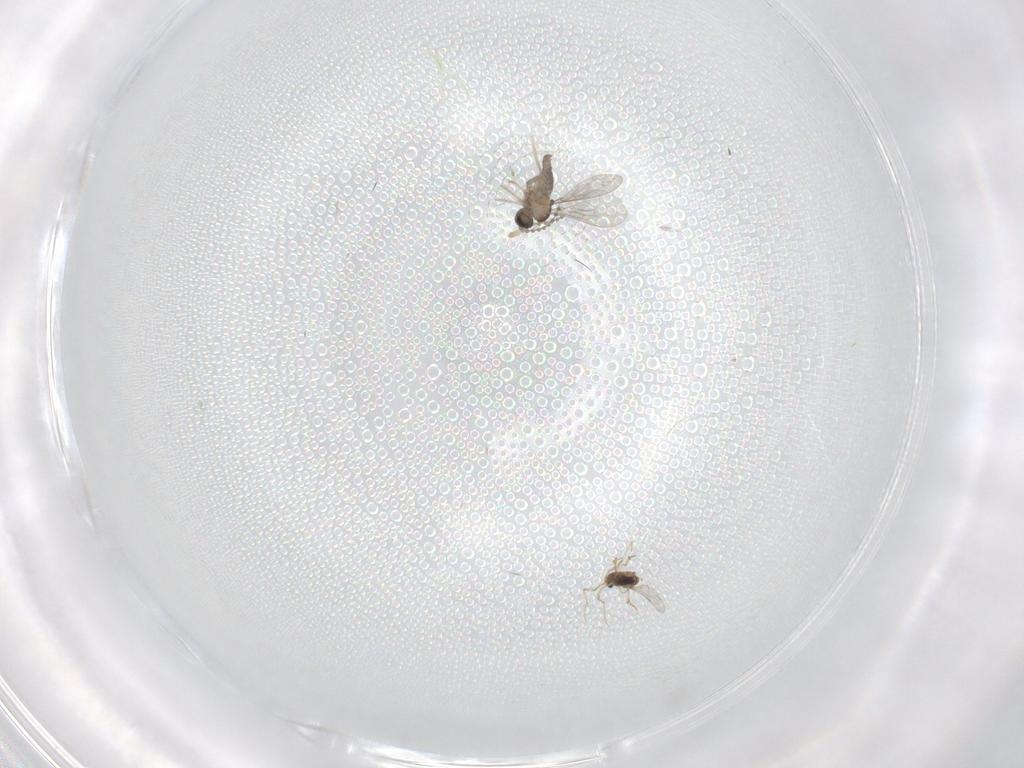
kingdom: Animalia
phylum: Arthropoda
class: Insecta
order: Diptera
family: Cecidomyiidae
